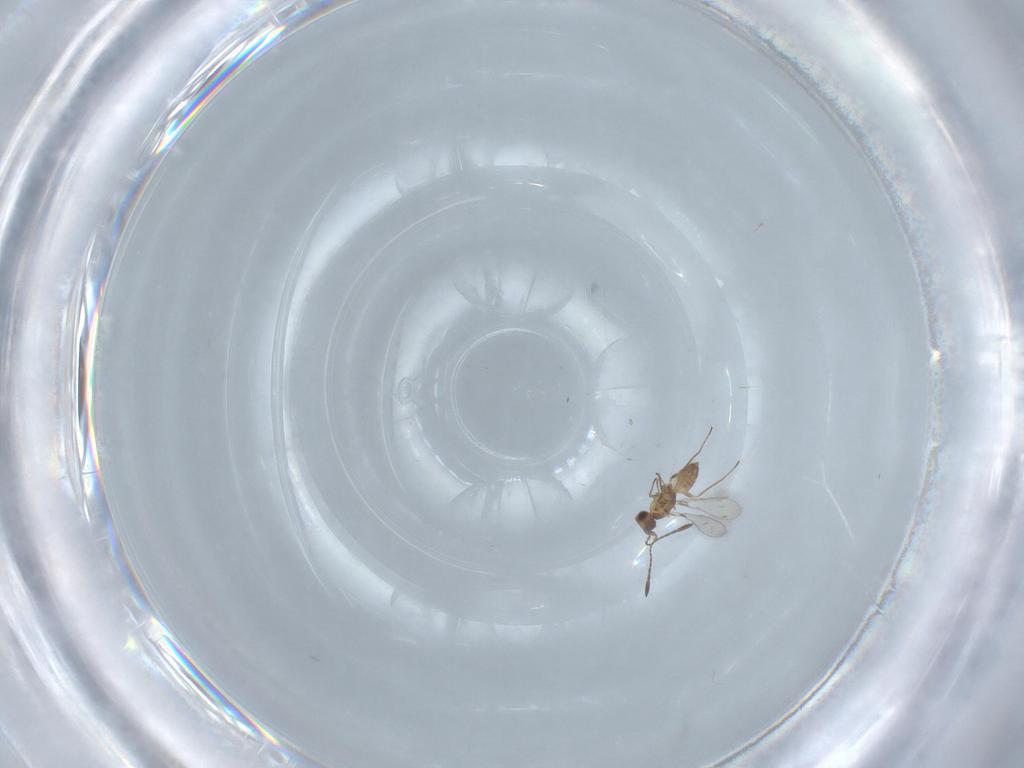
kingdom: Animalia
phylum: Arthropoda
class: Insecta
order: Hymenoptera
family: Mymaridae
